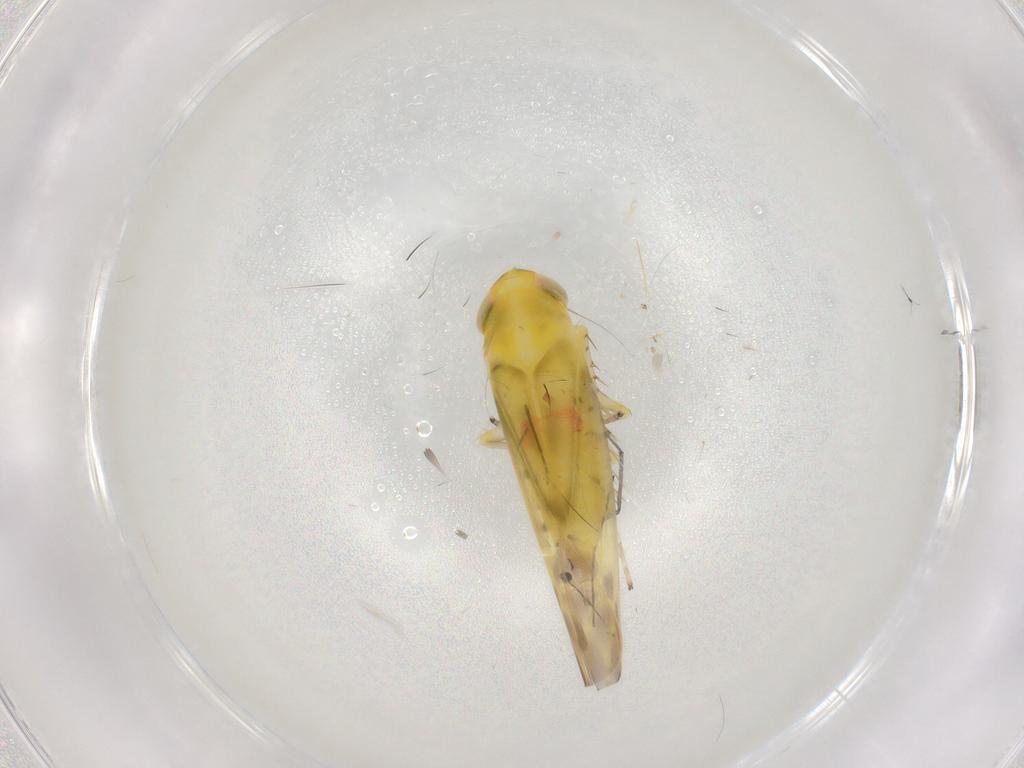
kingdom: Animalia
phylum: Arthropoda
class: Insecta
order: Hemiptera
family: Cicadellidae
